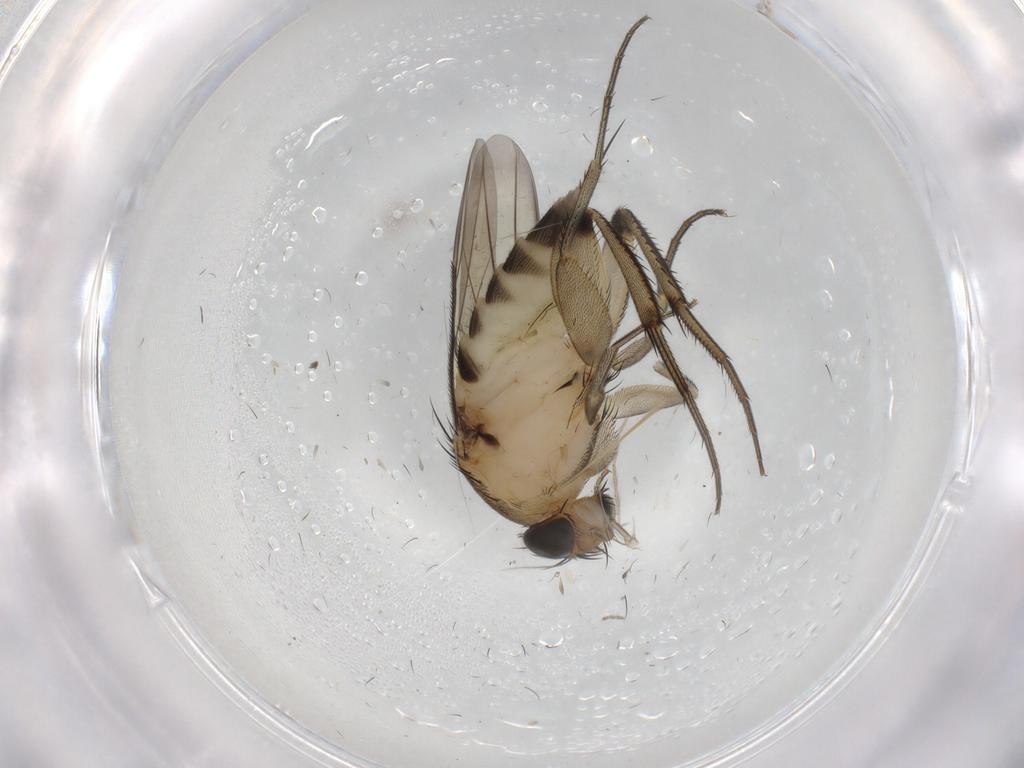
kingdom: Animalia
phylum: Arthropoda
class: Insecta
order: Diptera
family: Chironomidae
